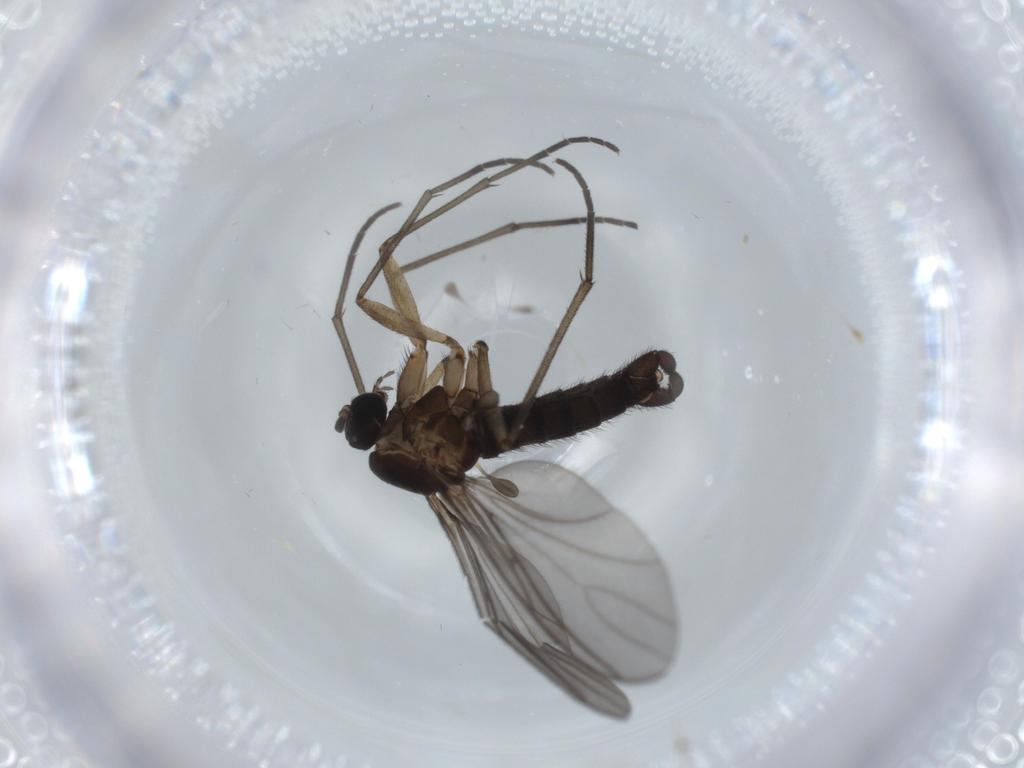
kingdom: Animalia
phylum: Arthropoda
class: Insecta
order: Diptera
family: Sciaridae
